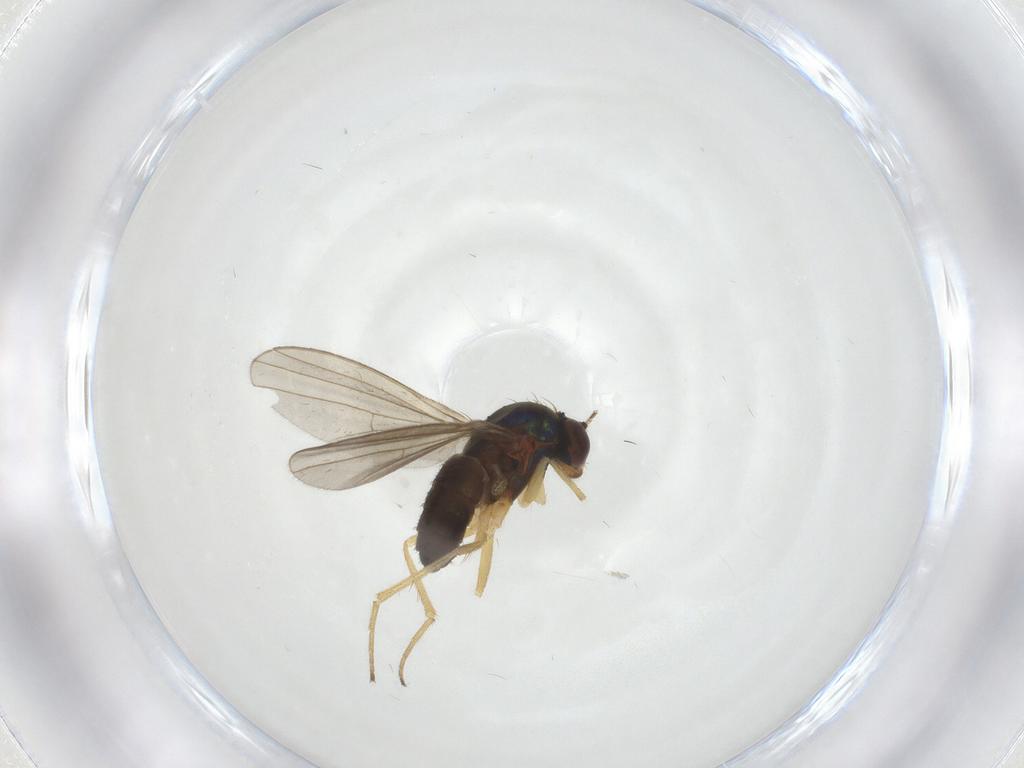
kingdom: Animalia
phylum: Arthropoda
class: Insecta
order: Diptera
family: Dolichopodidae
